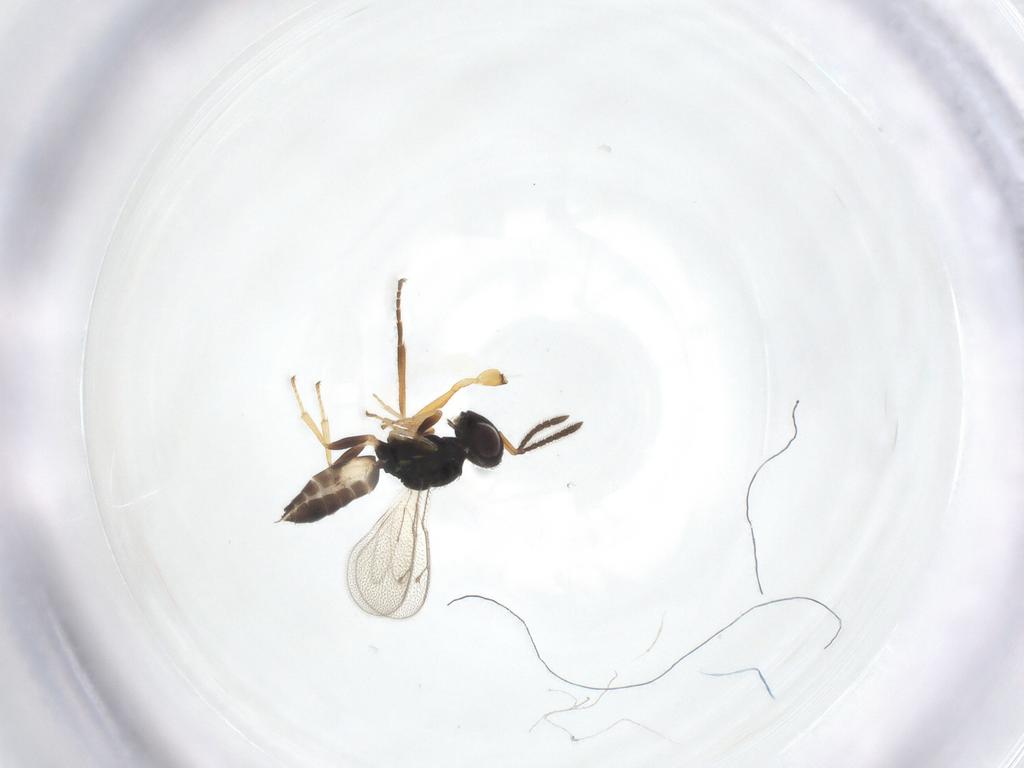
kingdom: Animalia
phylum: Arthropoda
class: Insecta
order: Hymenoptera
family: Pteromalidae
